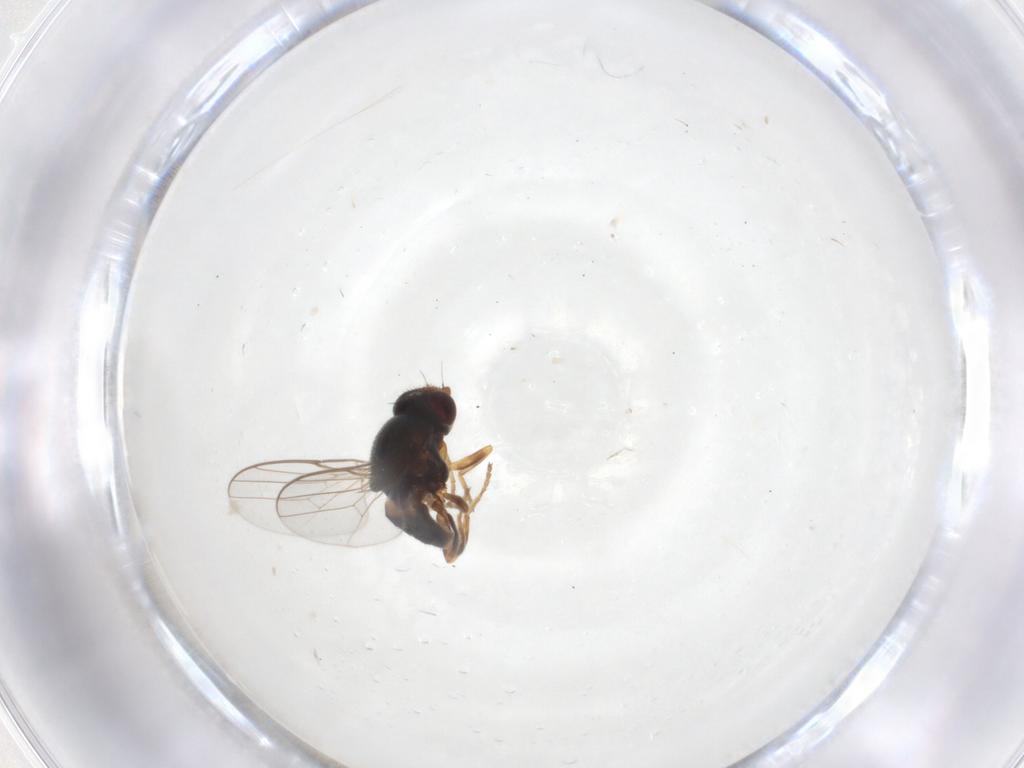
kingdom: Animalia
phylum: Arthropoda
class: Insecta
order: Diptera
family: Chloropidae
